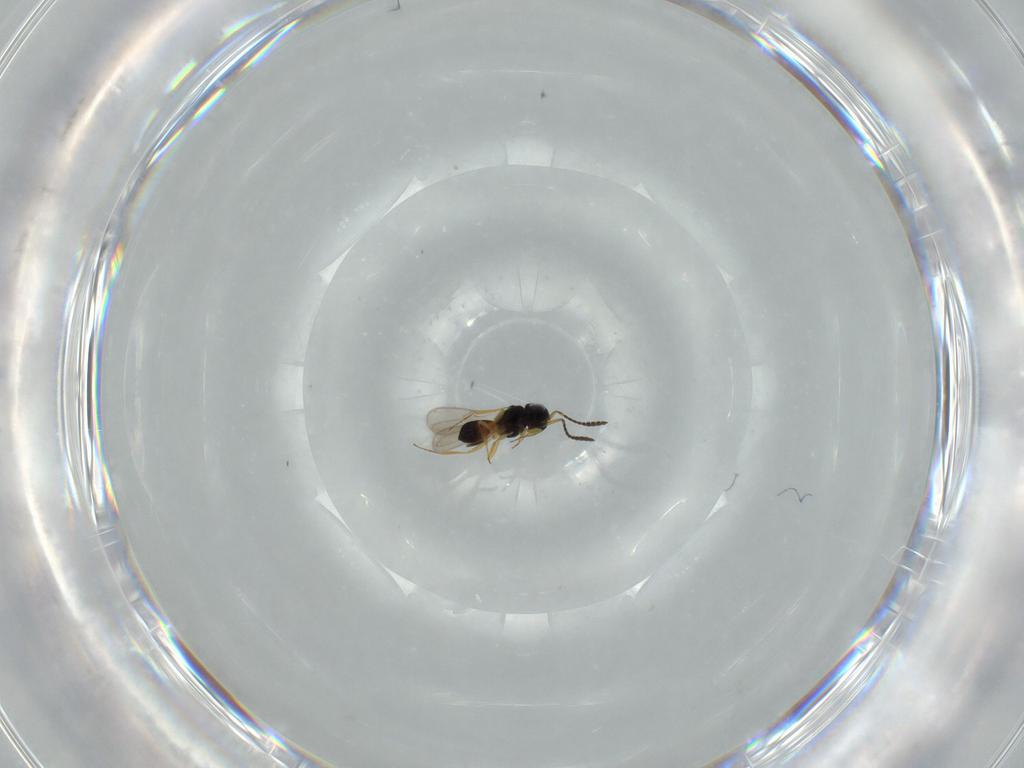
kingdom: Animalia
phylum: Arthropoda
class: Insecta
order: Hymenoptera
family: Scelionidae
